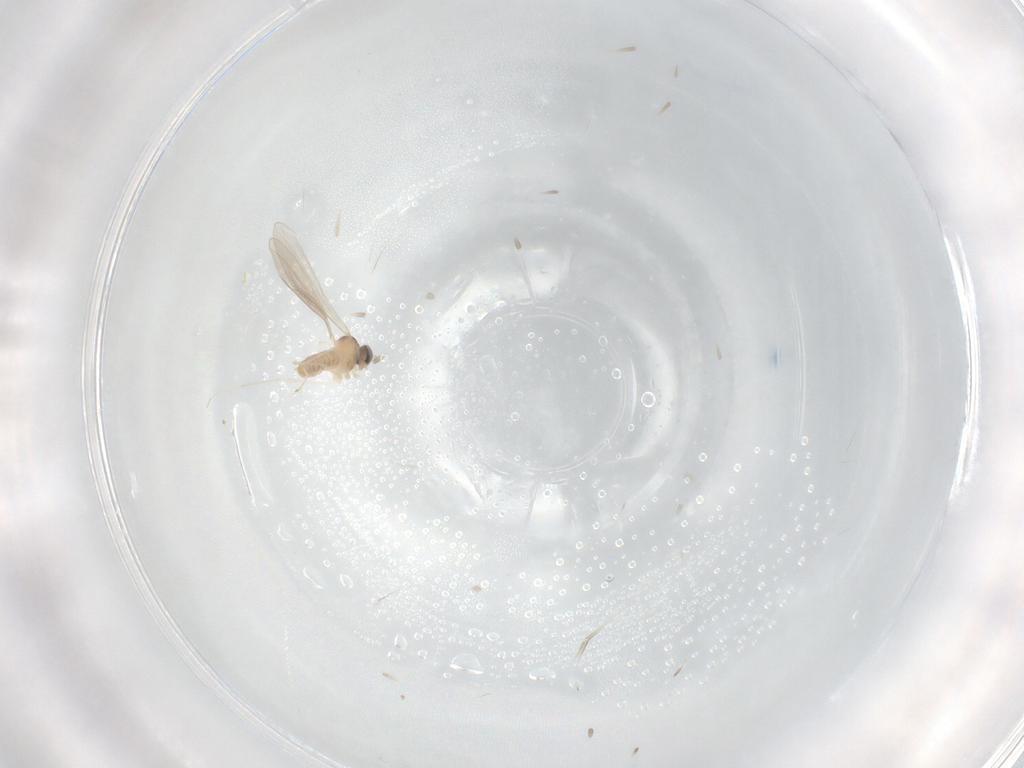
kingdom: Animalia
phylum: Arthropoda
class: Insecta
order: Diptera
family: Cecidomyiidae
